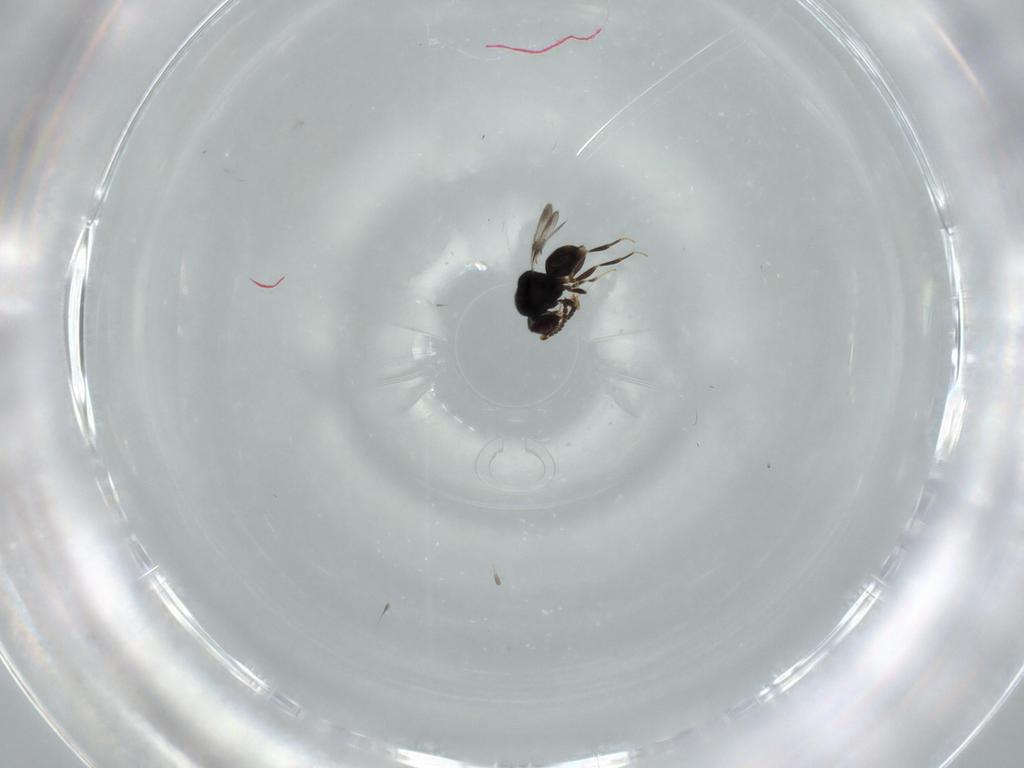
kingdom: Animalia
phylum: Arthropoda
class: Insecta
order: Hymenoptera
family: Ceraphronidae
